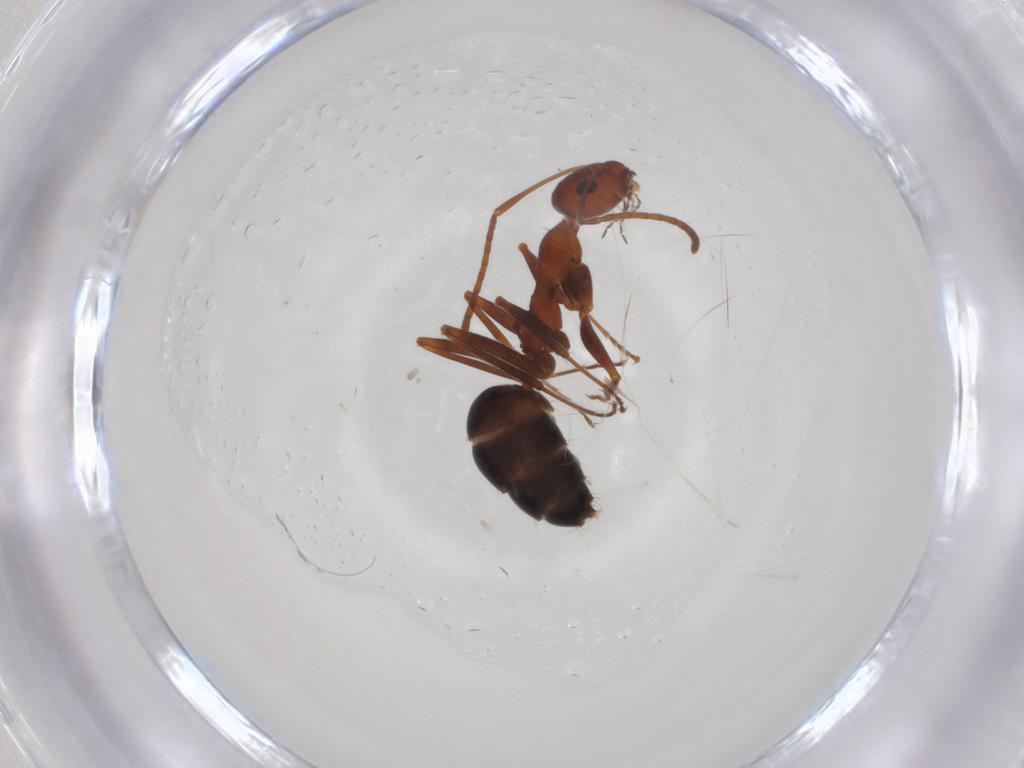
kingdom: Animalia
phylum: Arthropoda
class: Insecta
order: Hymenoptera
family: Formicidae
